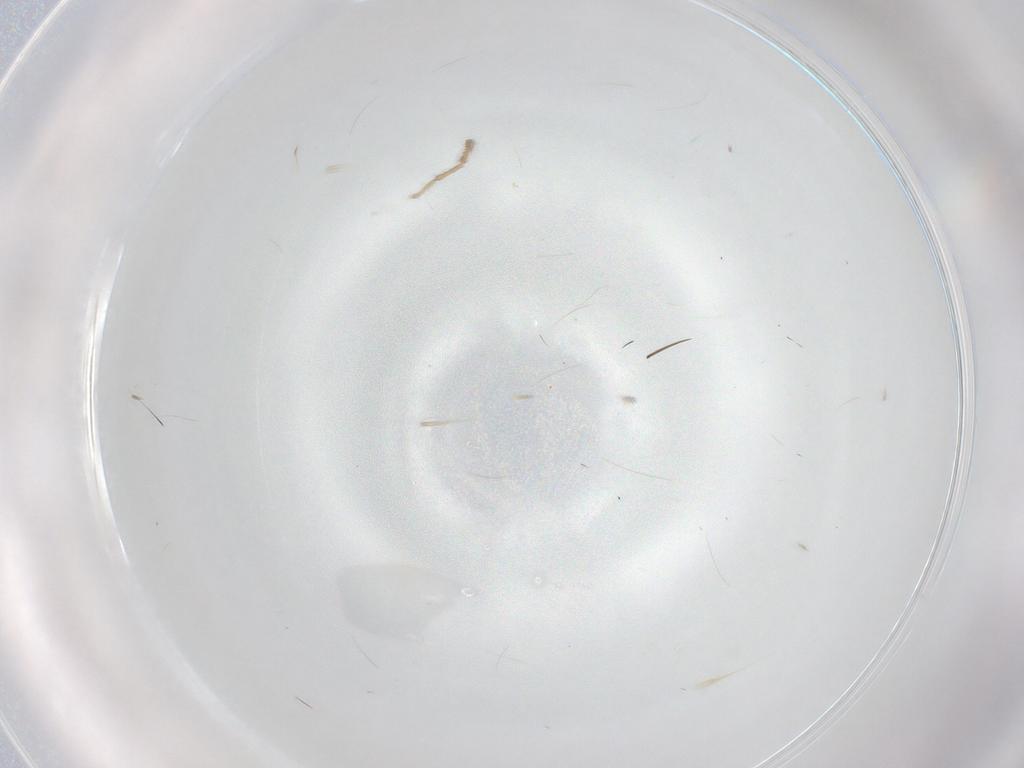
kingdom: Animalia
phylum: Arthropoda
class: Insecta
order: Diptera
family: Chironomidae
